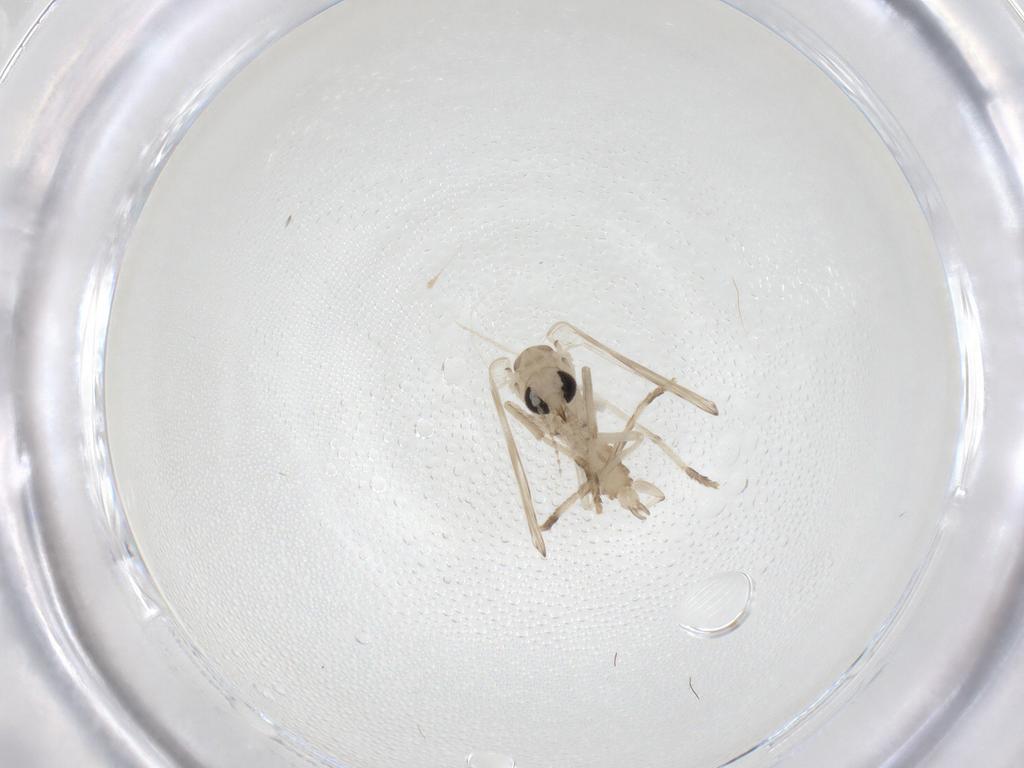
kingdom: Animalia
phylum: Arthropoda
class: Insecta
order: Diptera
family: Psychodidae
